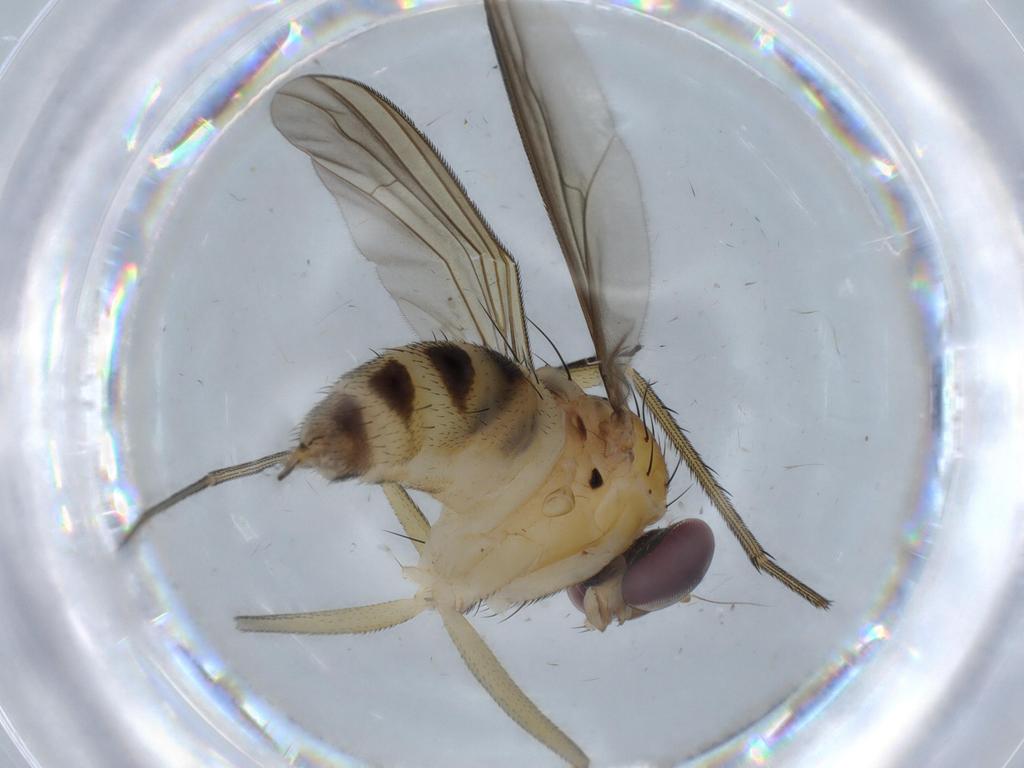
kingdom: Animalia
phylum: Arthropoda
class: Insecta
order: Diptera
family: Dolichopodidae
